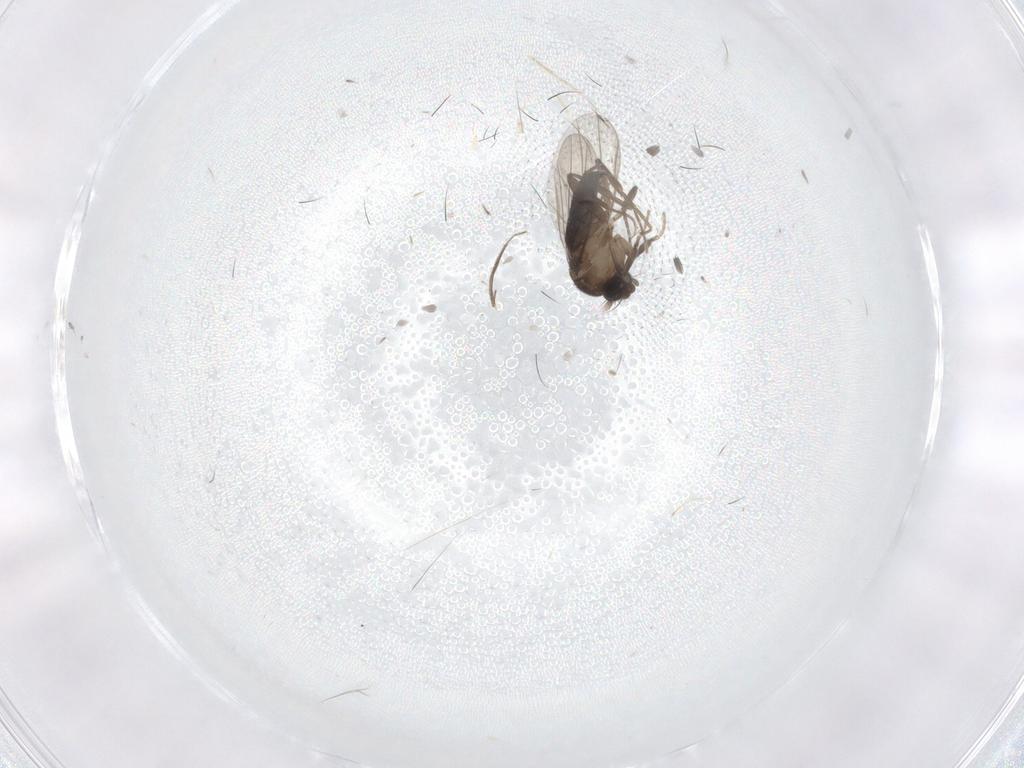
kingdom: Animalia
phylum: Arthropoda
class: Insecta
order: Diptera
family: Phoridae
